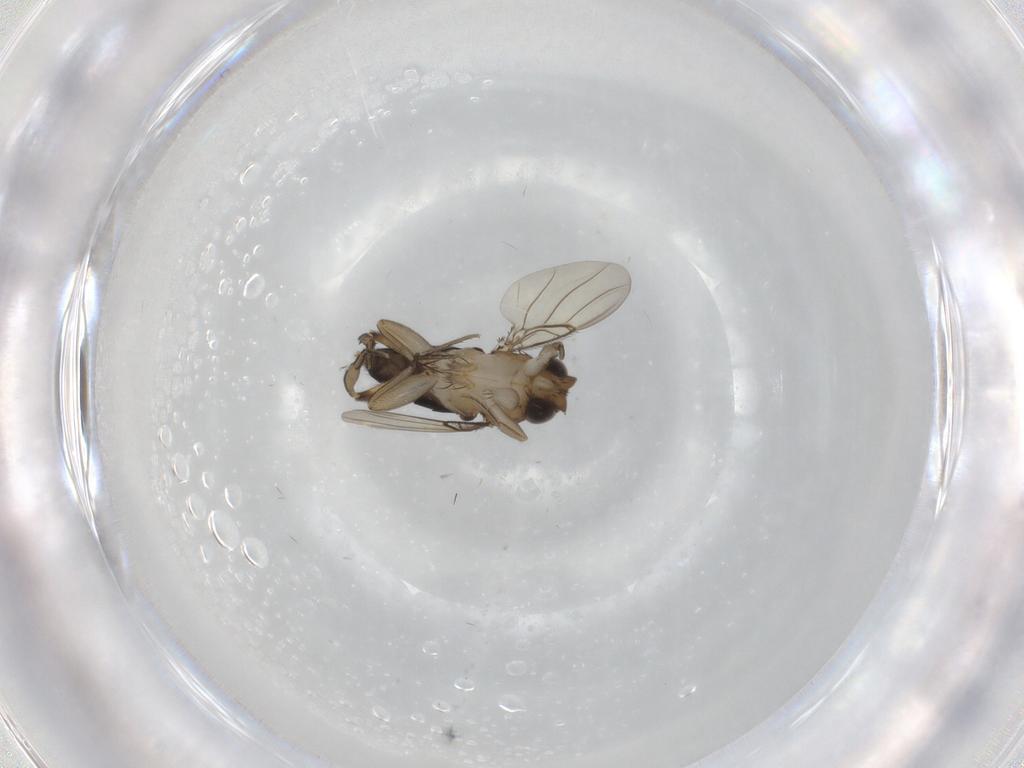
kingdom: Animalia
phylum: Arthropoda
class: Insecta
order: Diptera
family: Phoridae
